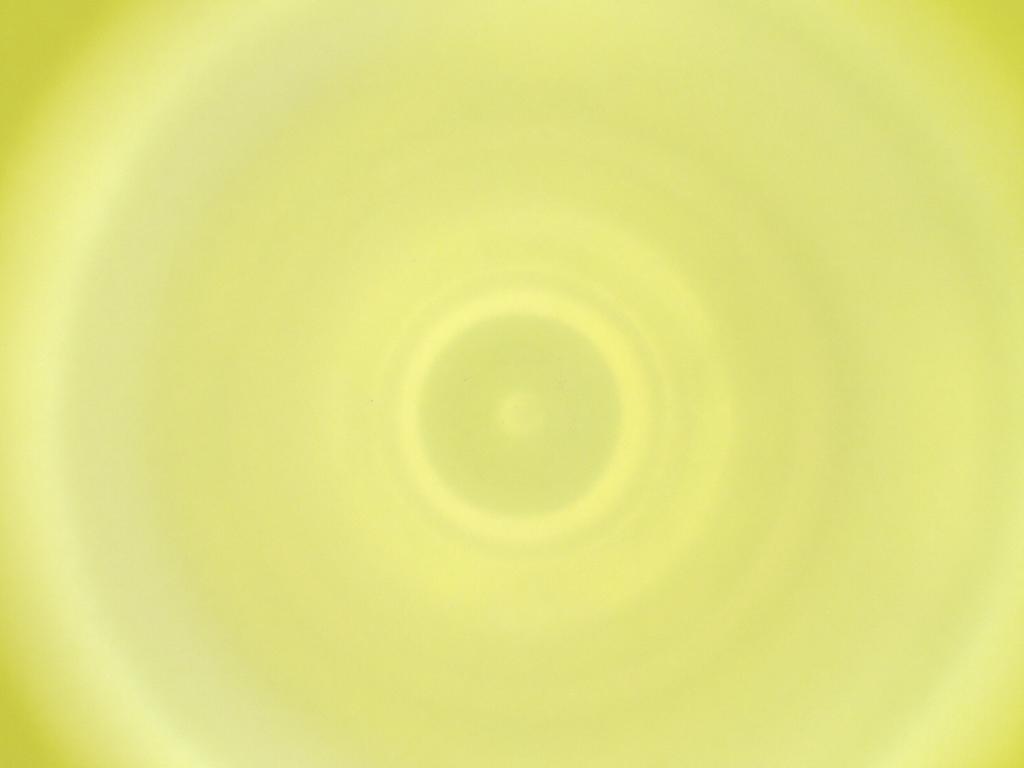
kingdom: Animalia
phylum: Arthropoda
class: Insecta
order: Diptera
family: Cecidomyiidae
